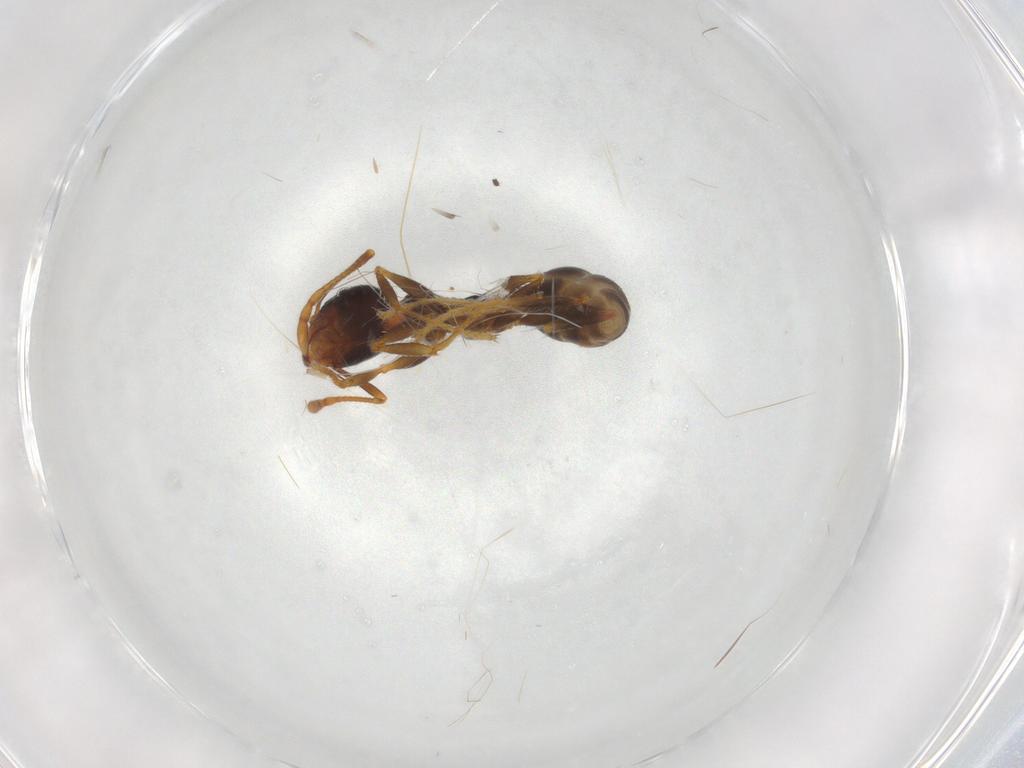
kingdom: Animalia
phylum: Arthropoda
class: Insecta
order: Hymenoptera
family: Formicidae
